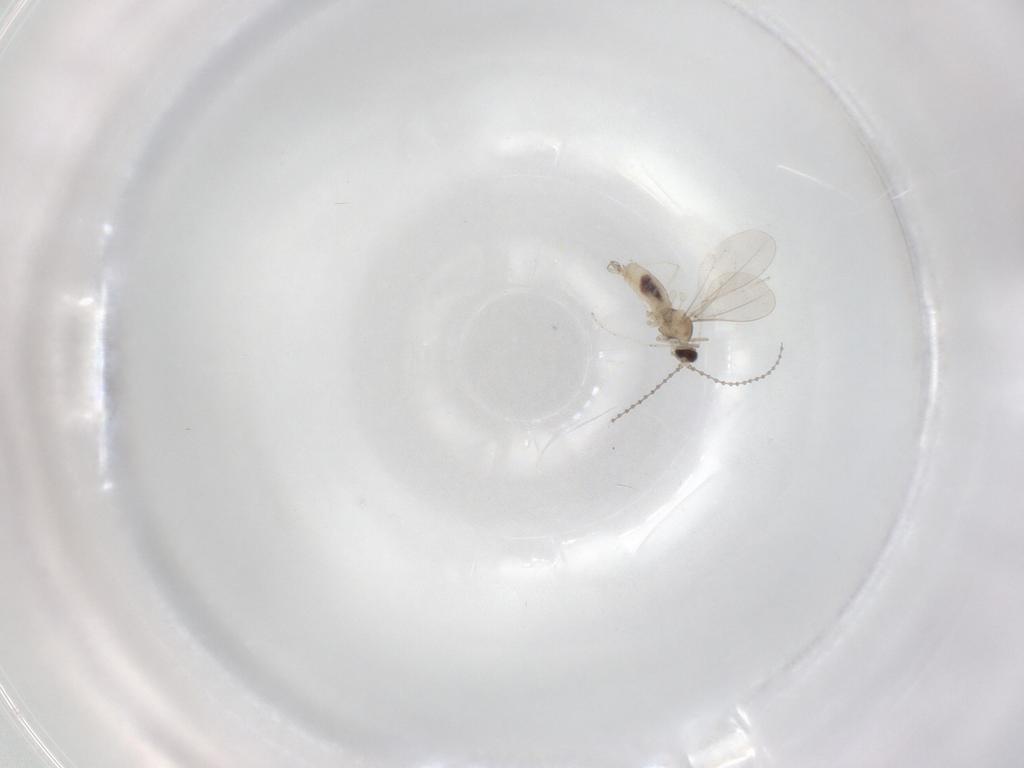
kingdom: Animalia
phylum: Arthropoda
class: Insecta
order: Diptera
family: Cecidomyiidae
